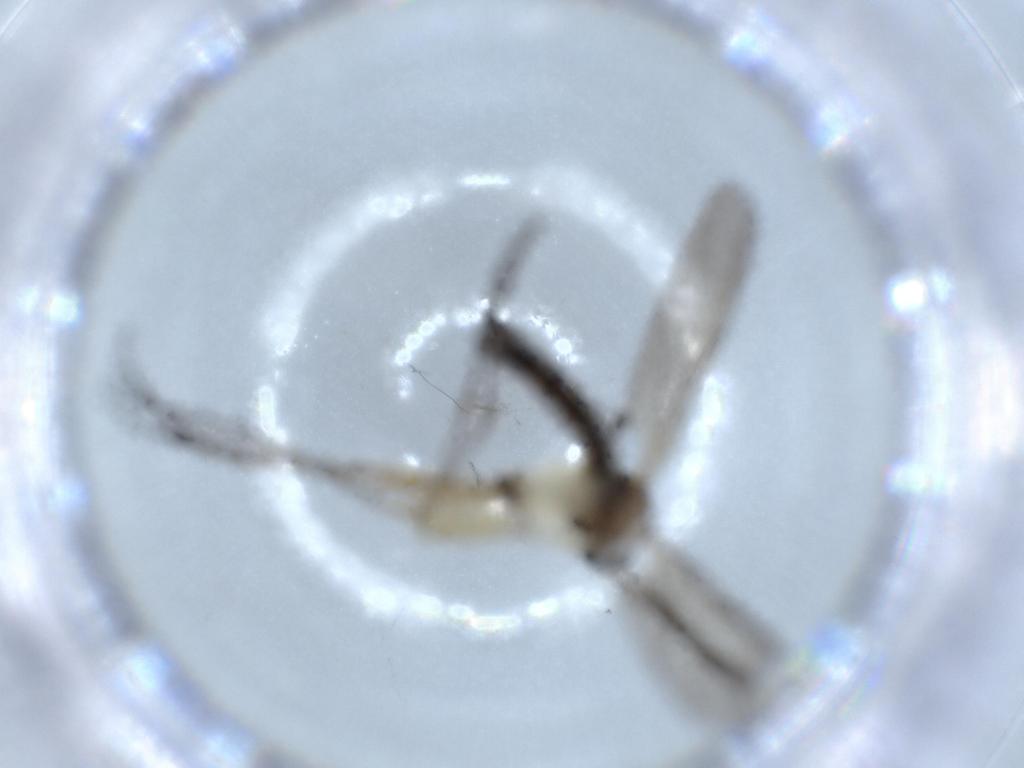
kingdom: Animalia
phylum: Arthropoda
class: Insecta
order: Diptera
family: Sciaridae
